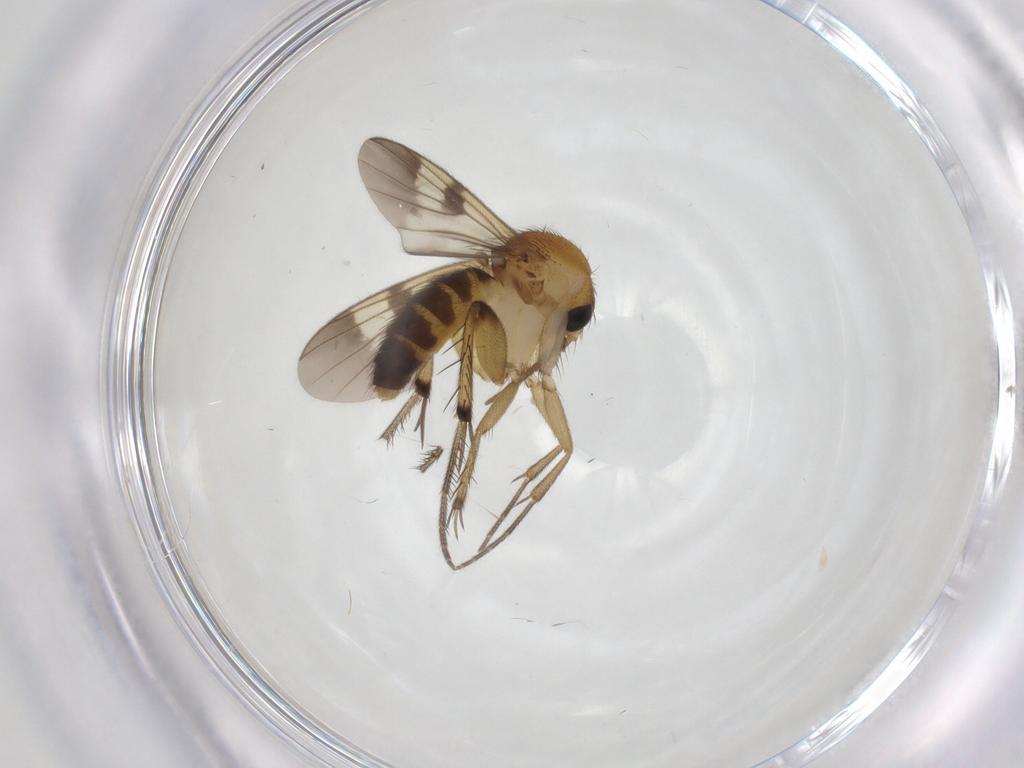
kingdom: Animalia
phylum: Arthropoda
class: Insecta
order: Diptera
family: Mycetophilidae
